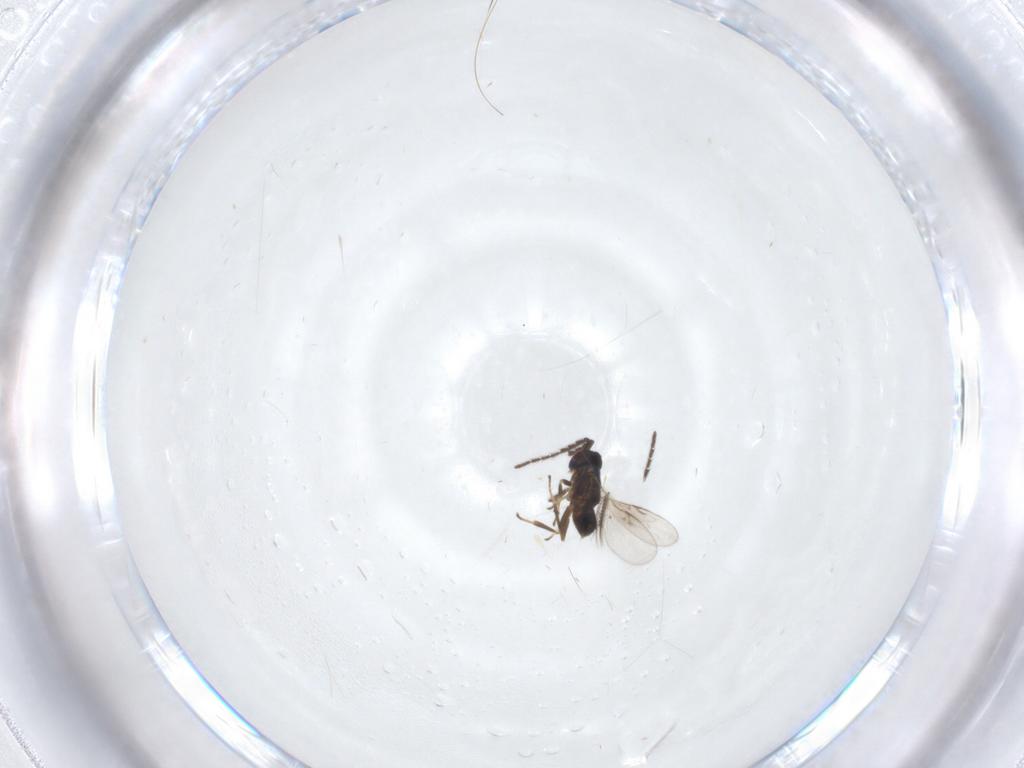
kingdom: Animalia
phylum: Arthropoda
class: Insecta
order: Hymenoptera
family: Encyrtidae
